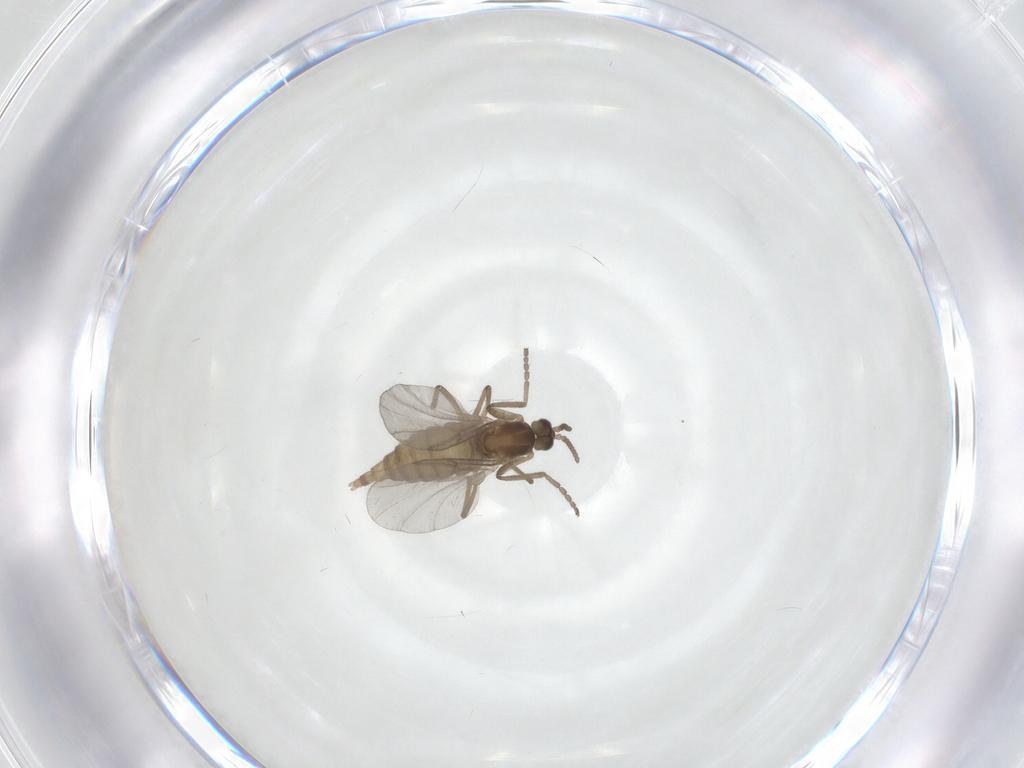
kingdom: Animalia
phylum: Arthropoda
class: Insecta
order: Diptera
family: Cecidomyiidae
